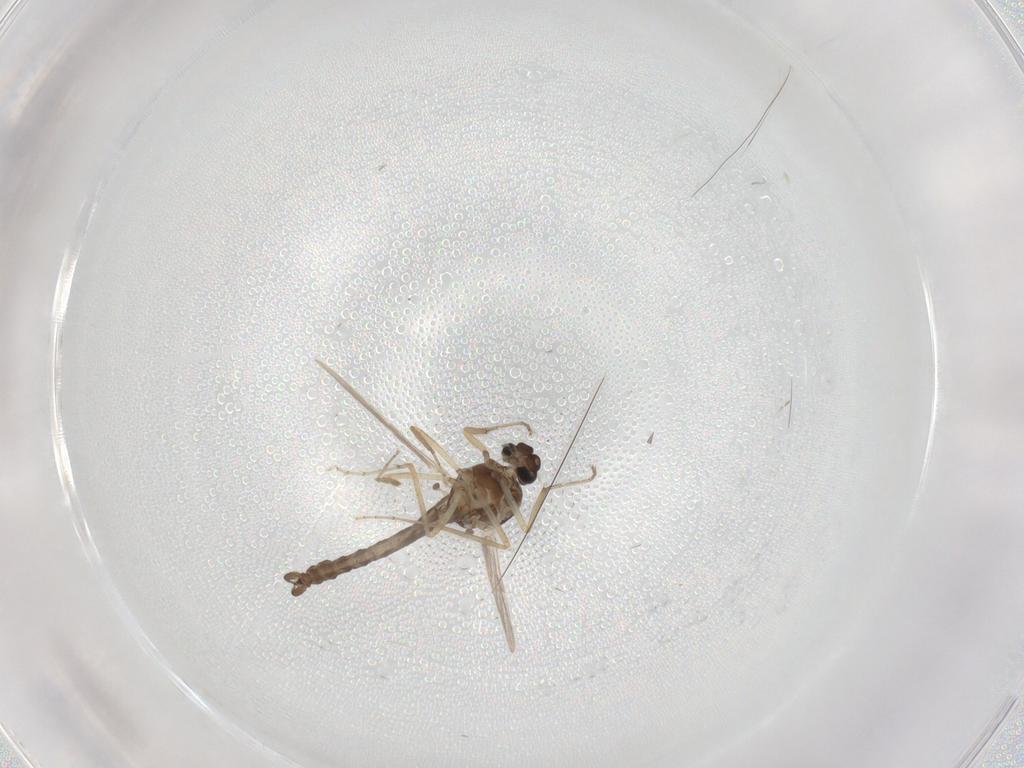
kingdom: Animalia
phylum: Arthropoda
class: Insecta
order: Diptera
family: Ceratopogonidae
